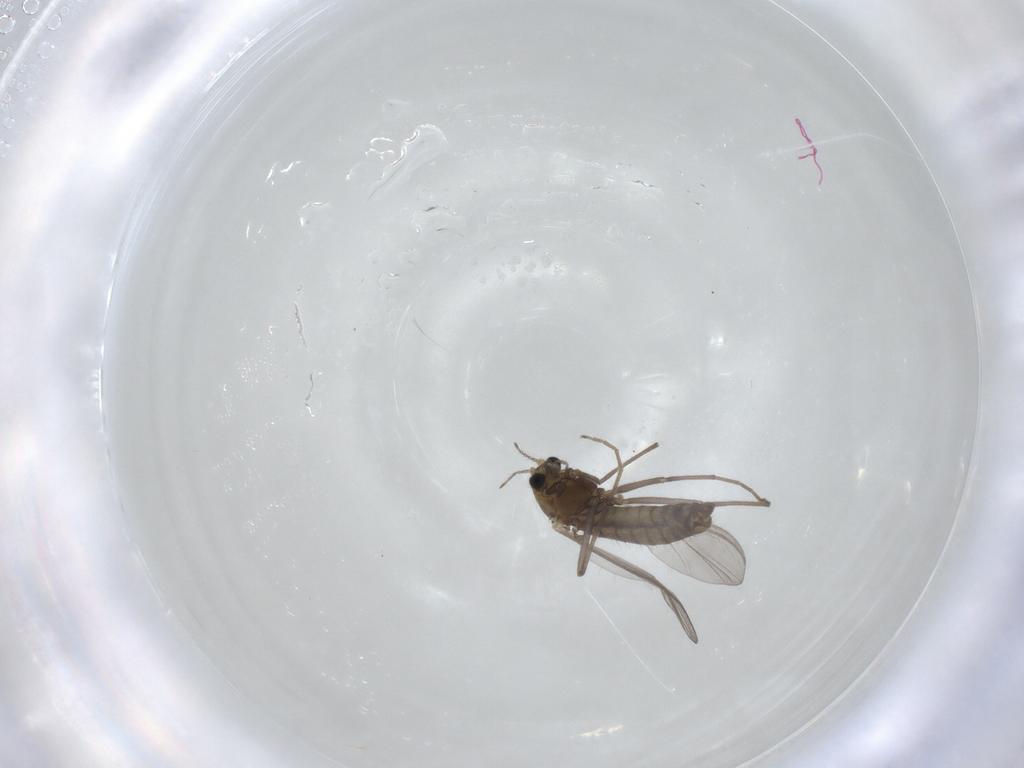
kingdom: Animalia
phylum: Arthropoda
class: Insecta
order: Diptera
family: Chironomidae
